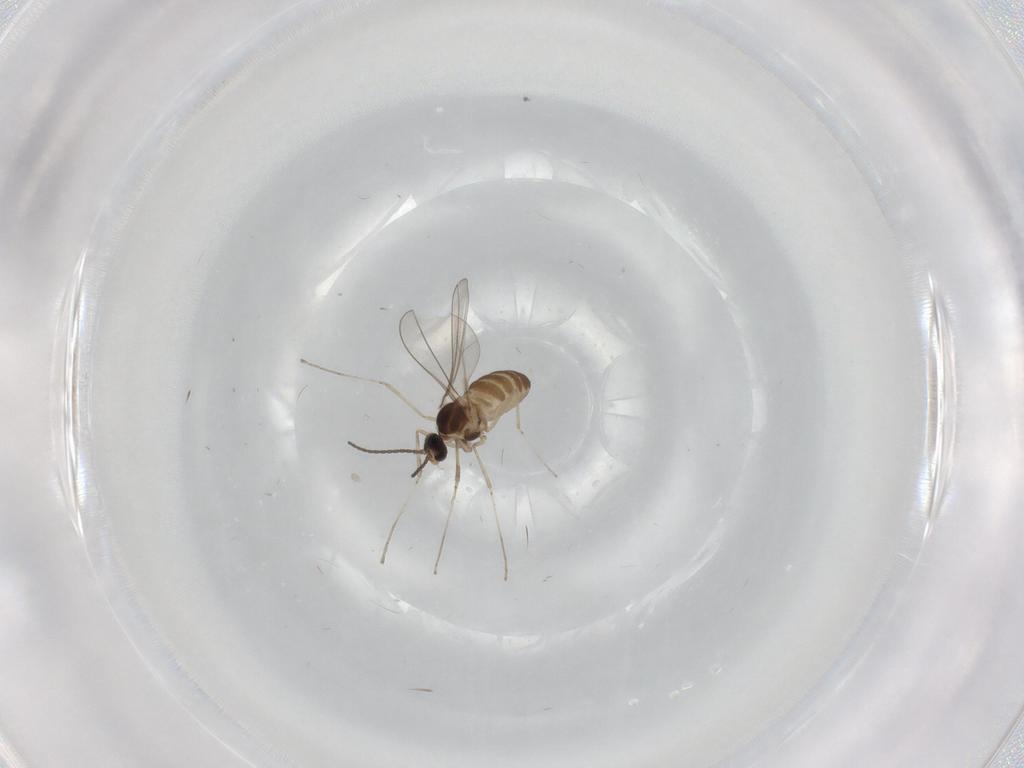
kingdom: Animalia
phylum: Arthropoda
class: Insecta
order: Diptera
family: Cecidomyiidae
